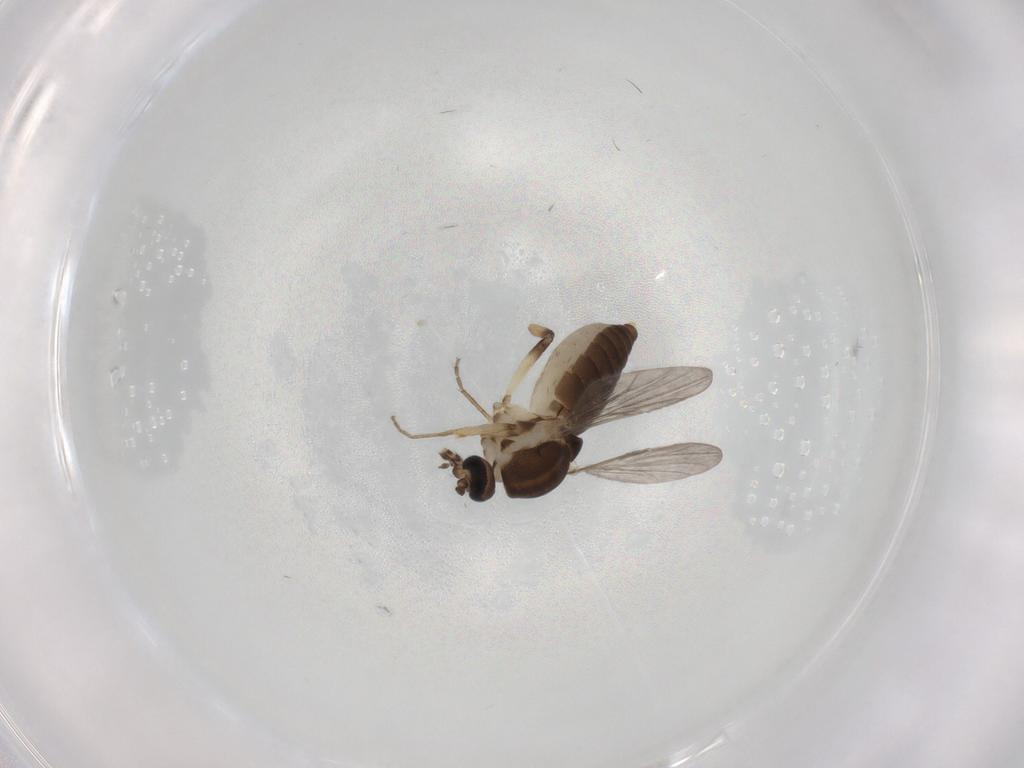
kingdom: Animalia
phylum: Arthropoda
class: Insecta
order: Diptera
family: Ceratopogonidae
